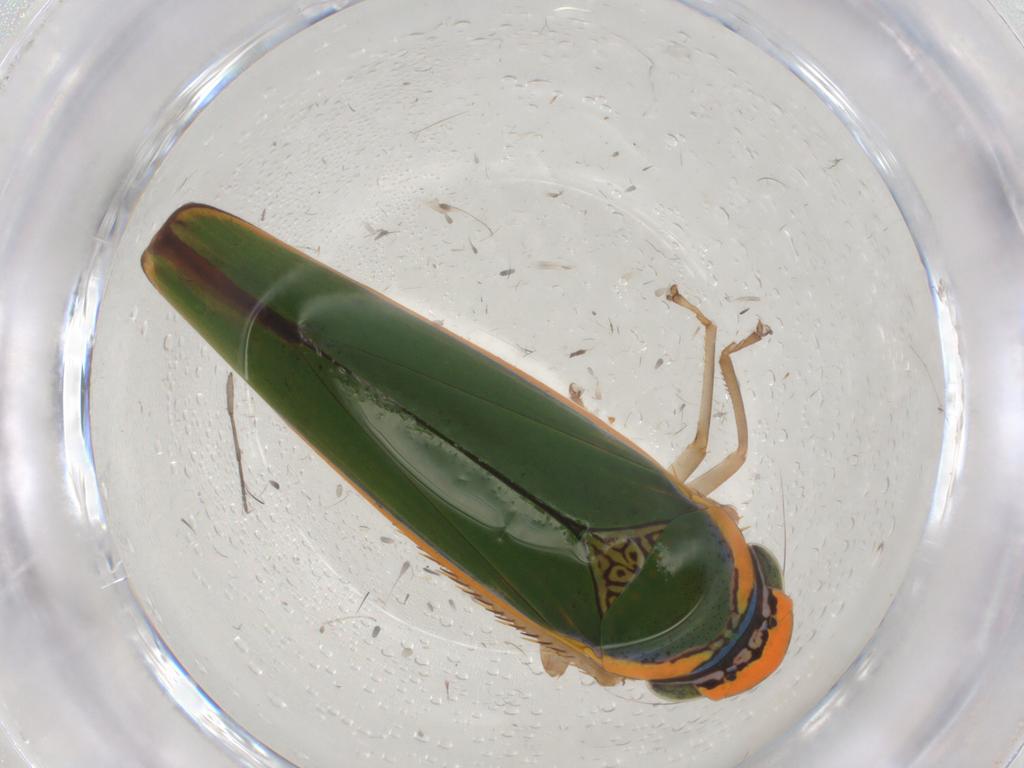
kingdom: Animalia
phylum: Arthropoda
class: Insecta
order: Hemiptera
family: Cicadellidae
